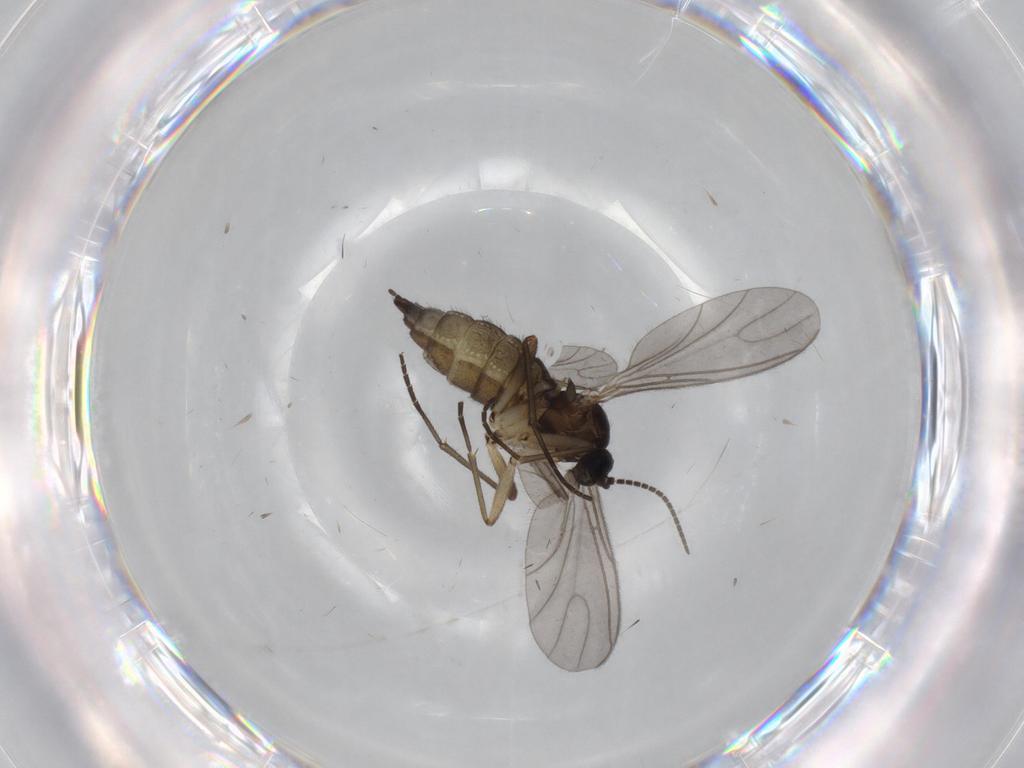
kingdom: Animalia
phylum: Arthropoda
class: Insecta
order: Diptera
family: Sciaridae
